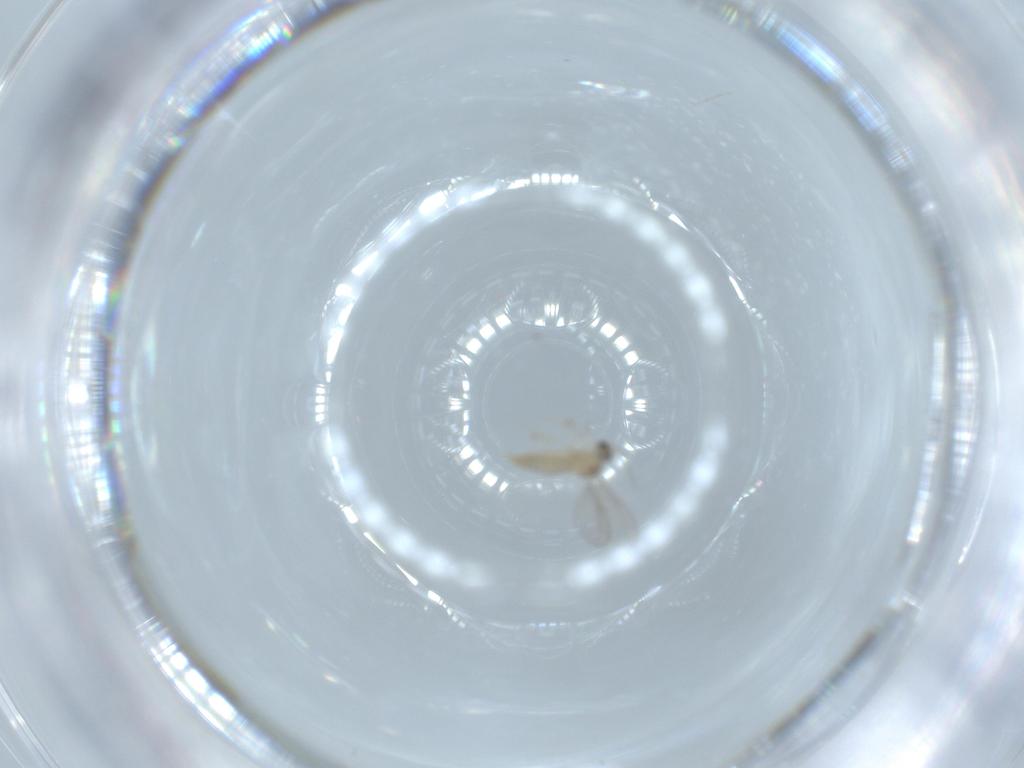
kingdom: Animalia
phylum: Arthropoda
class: Insecta
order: Diptera
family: Cecidomyiidae
